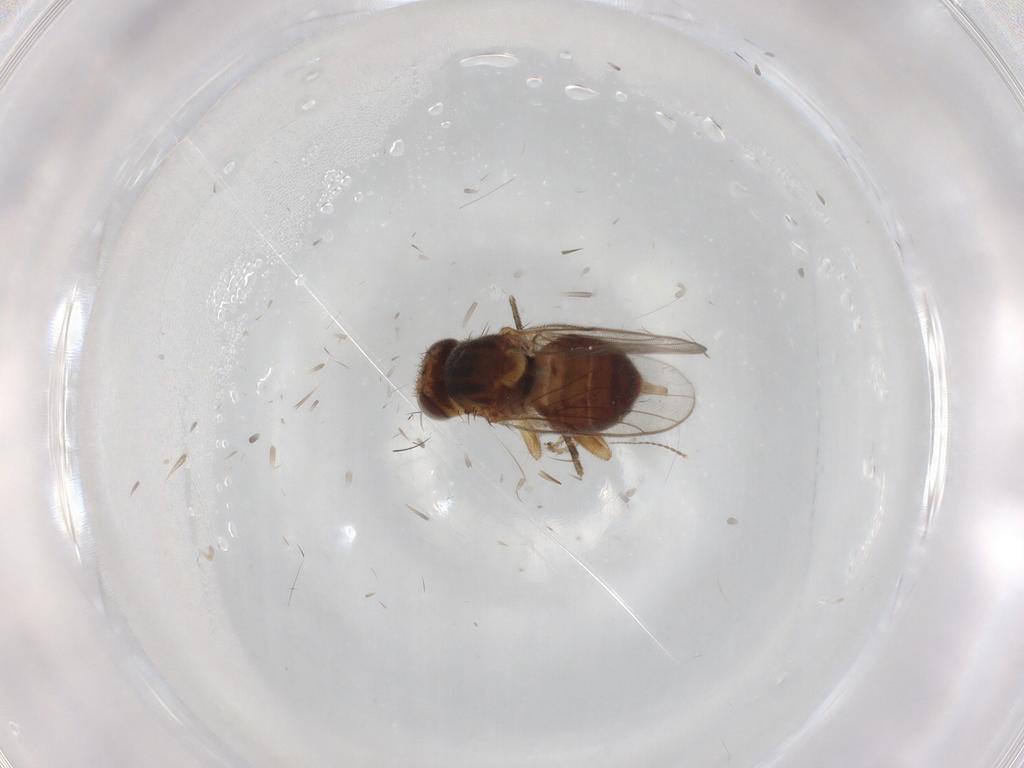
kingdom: Animalia
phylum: Arthropoda
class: Insecta
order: Diptera
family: Chloropidae
